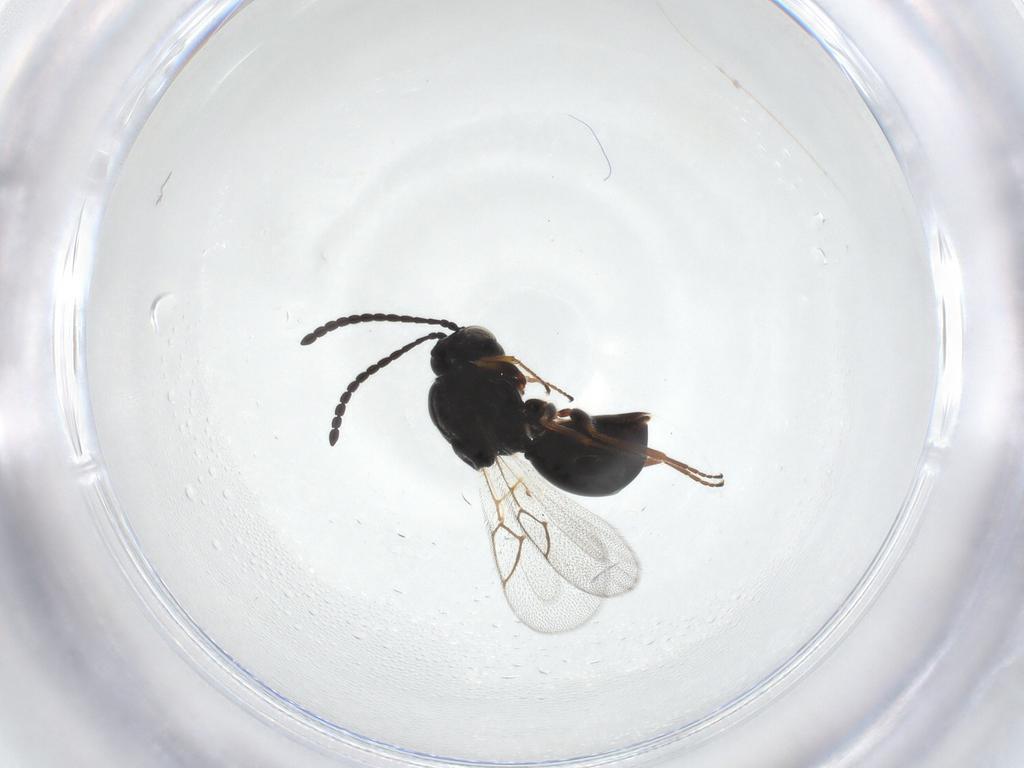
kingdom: Animalia
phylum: Arthropoda
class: Insecta
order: Hymenoptera
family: Figitidae
